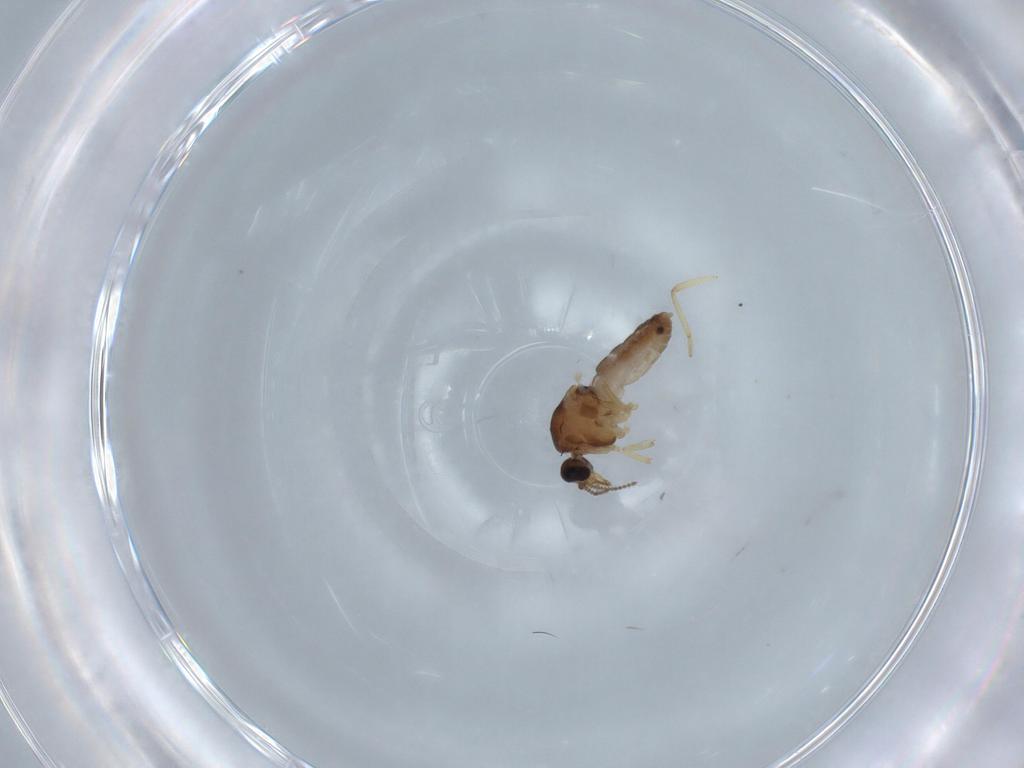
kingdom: Animalia
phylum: Arthropoda
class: Insecta
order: Diptera
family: Ceratopogonidae
